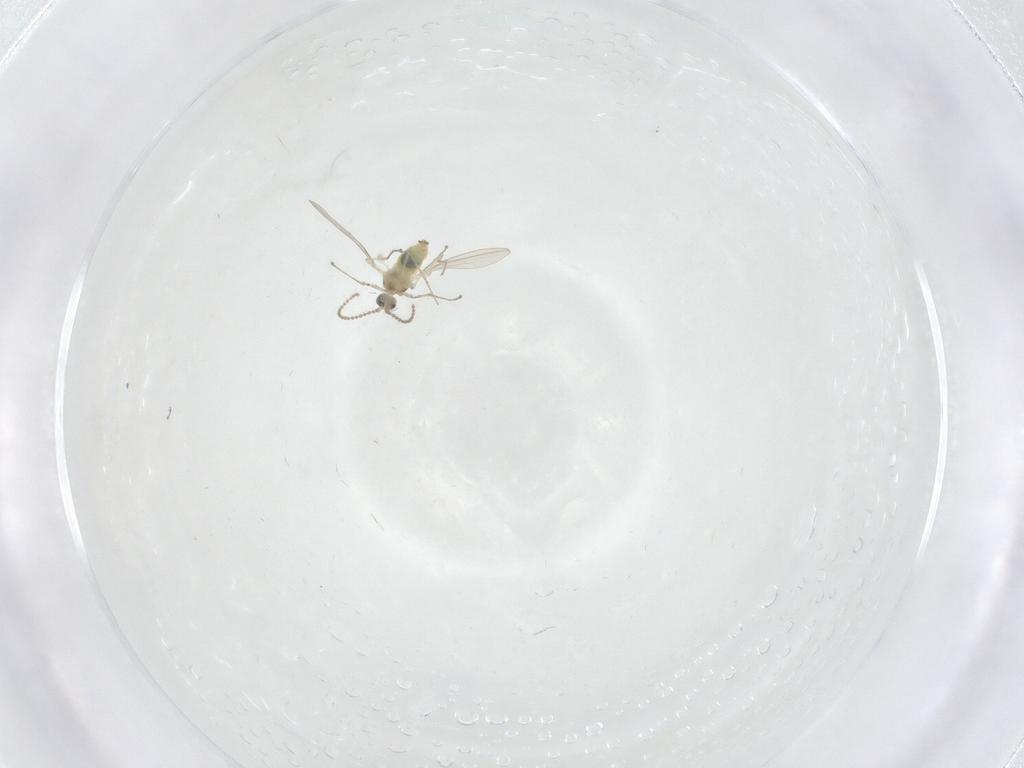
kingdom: Animalia
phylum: Arthropoda
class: Insecta
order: Diptera
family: Cecidomyiidae
